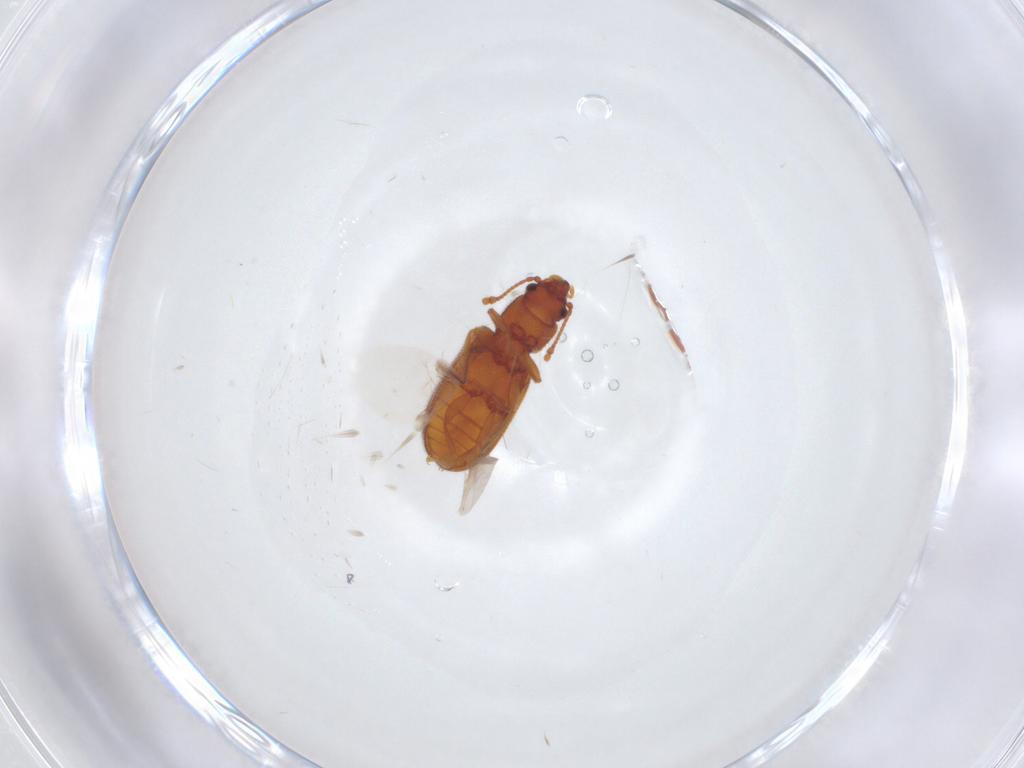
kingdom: Animalia
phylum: Arthropoda
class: Insecta
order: Coleoptera
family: Mycetophagidae
